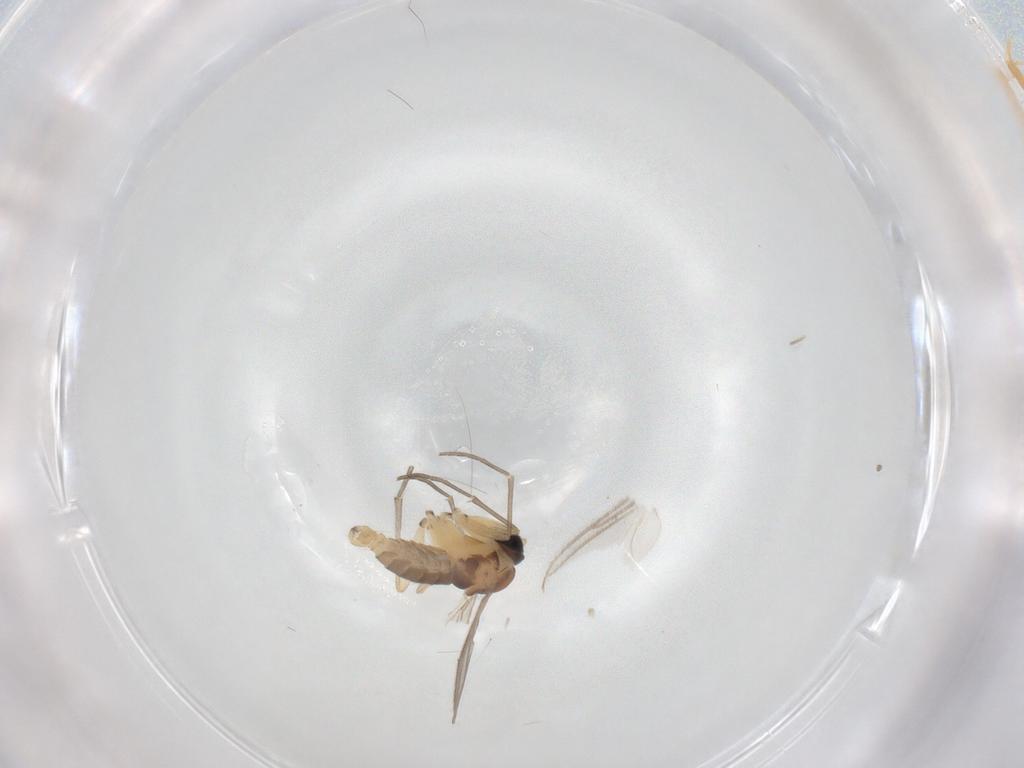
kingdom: Animalia
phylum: Arthropoda
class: Insecta
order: Diptera
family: Sciaridae
